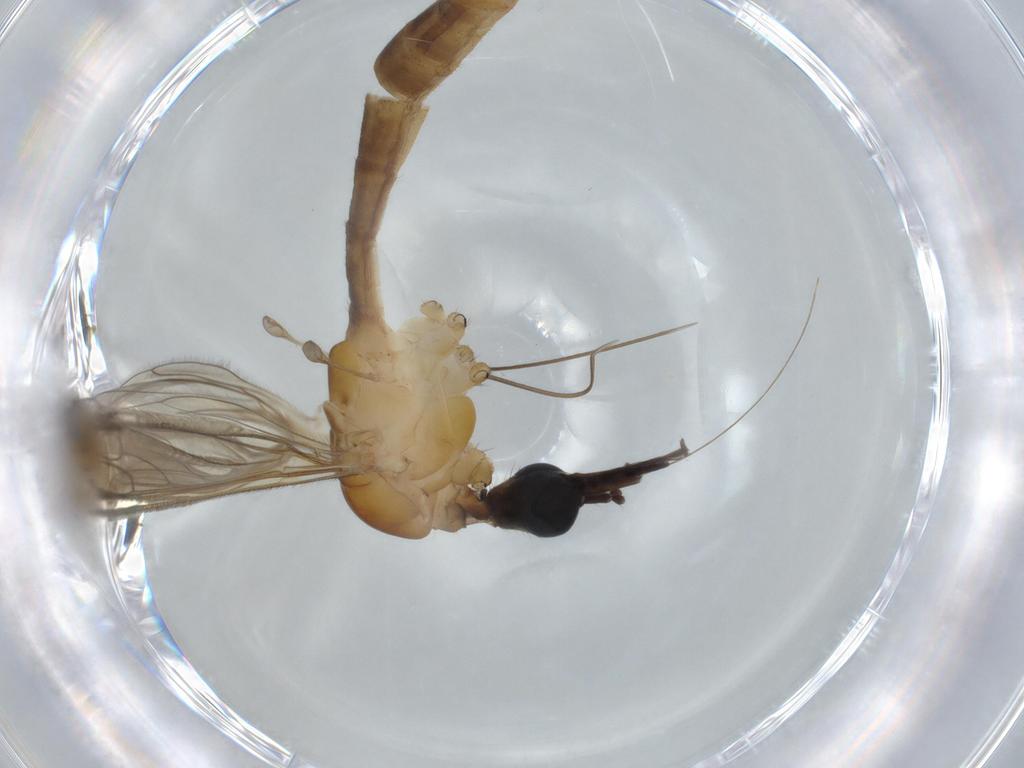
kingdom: Animalia
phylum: Arthropoda
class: Insecta
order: Diptera
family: Sciaridae
